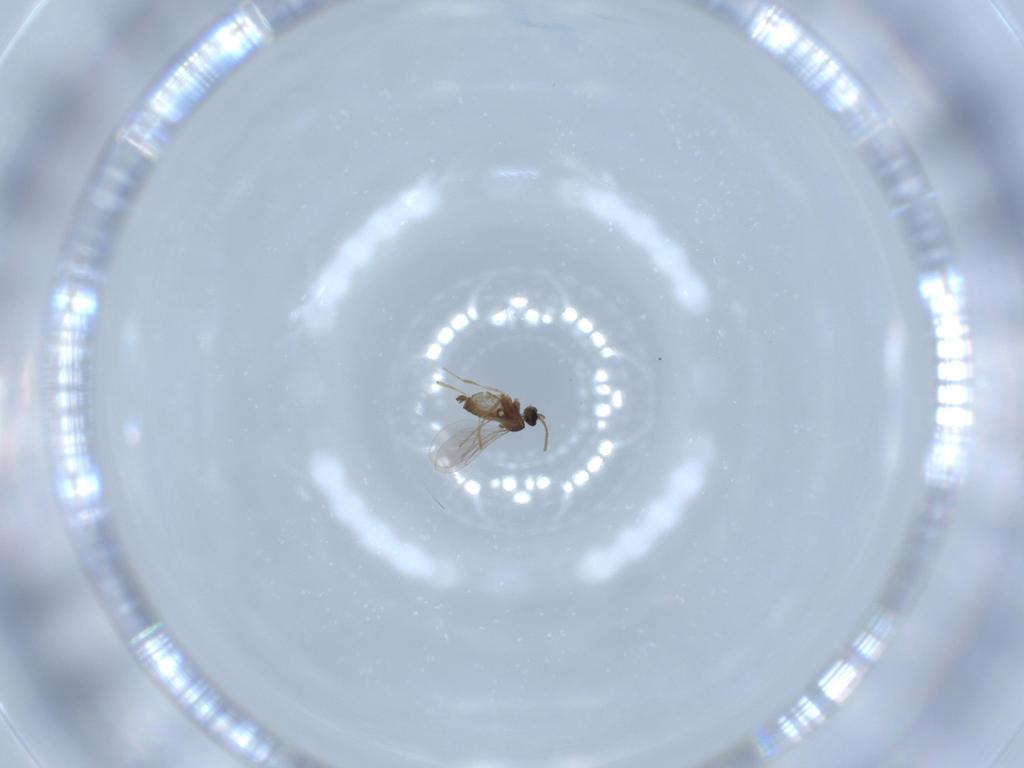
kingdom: Animalia
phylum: Arthropoda
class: Insecta
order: Diptera
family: Cecidomyiidae
